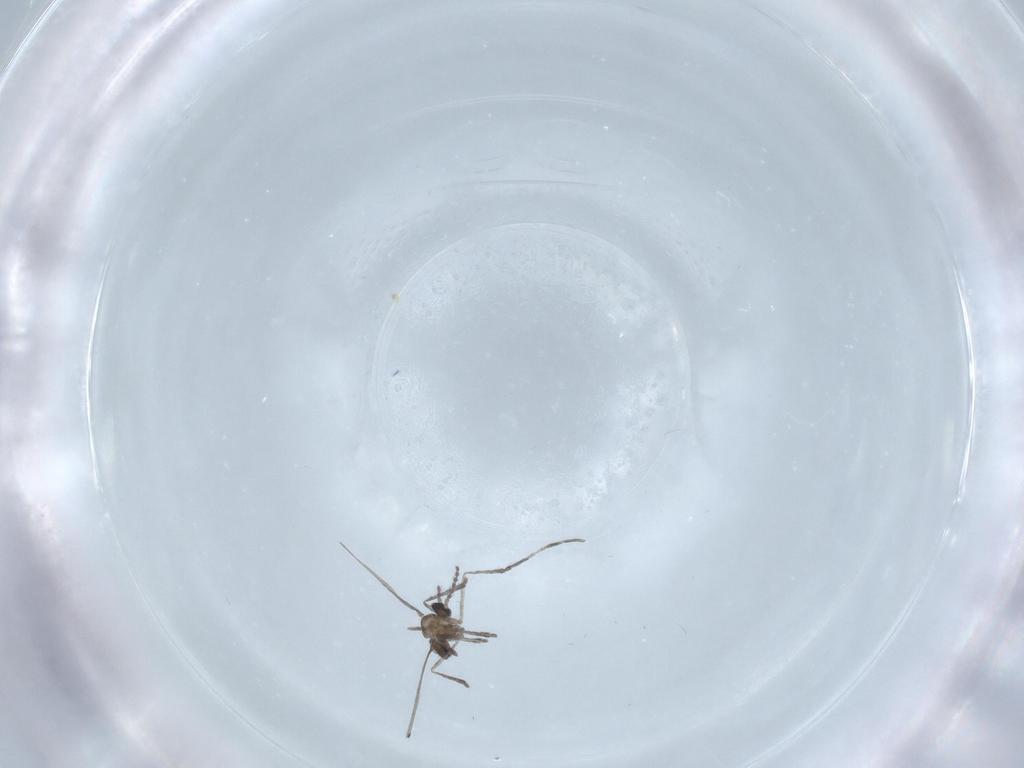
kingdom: Animalia
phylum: Arthropoda
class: Insecta
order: Diptera
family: Cecidomyiidae
